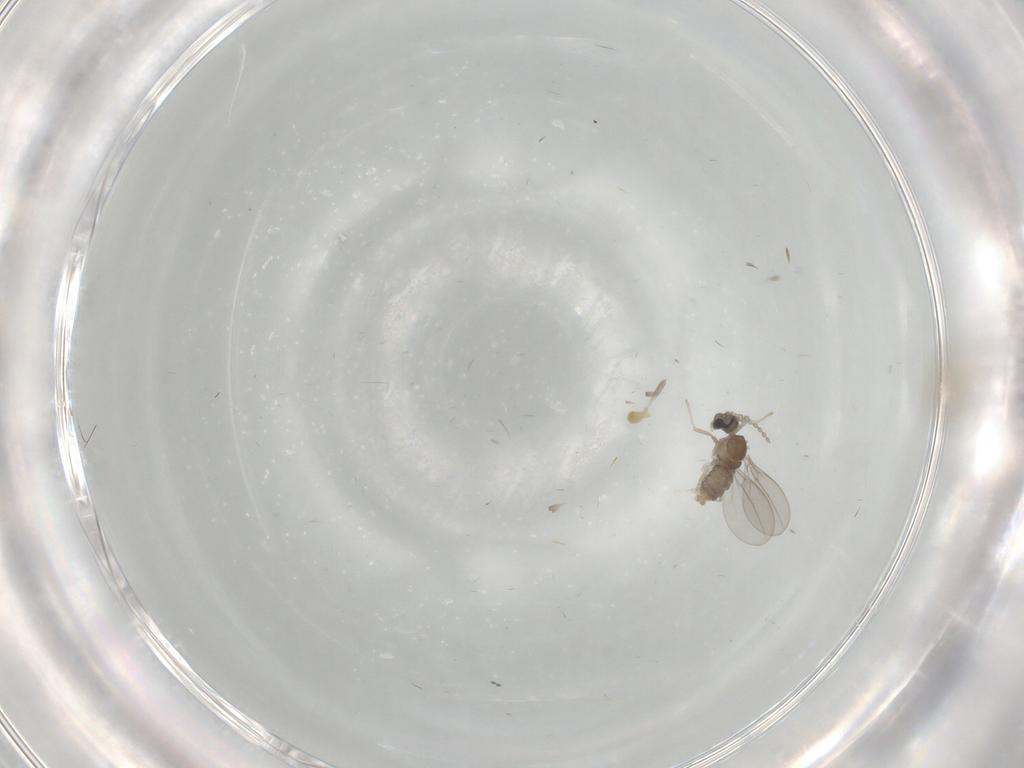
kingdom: Animalia
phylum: Arthropoda
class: Insecta
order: Diptera
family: Cecidomyiidae
